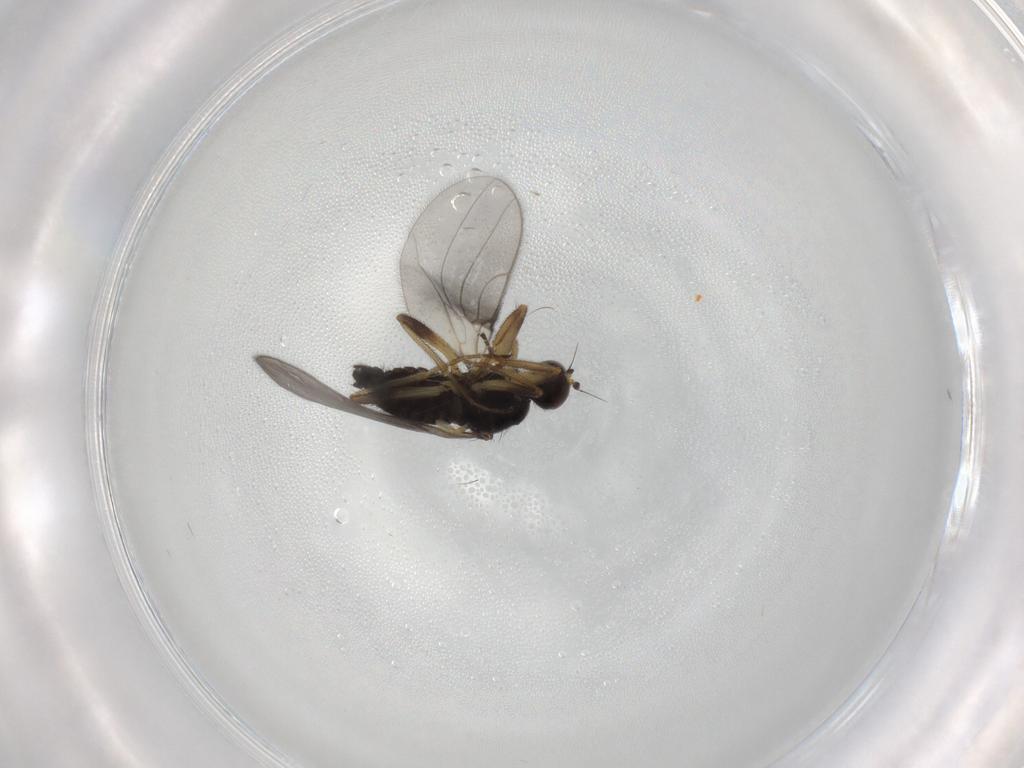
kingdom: Animalia
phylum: Arthropoda
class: Insecta
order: Diptera
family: Hybotidae
